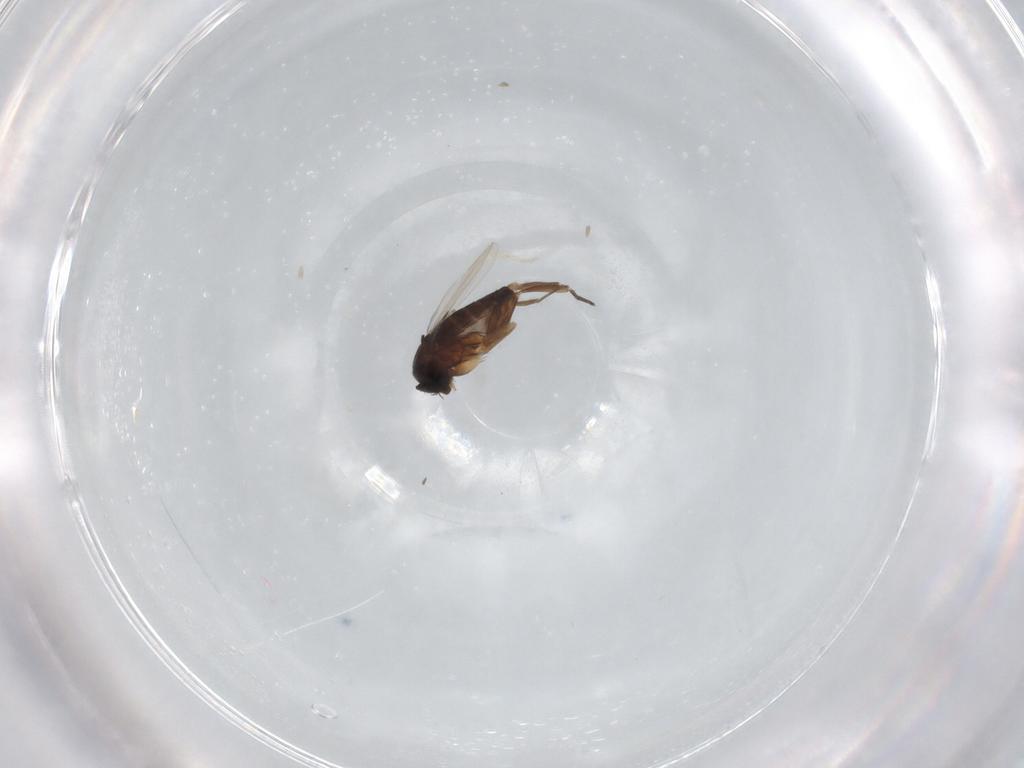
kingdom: Animalia
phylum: Arthropoda
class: Insecta
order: Diptera
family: Phoridae
